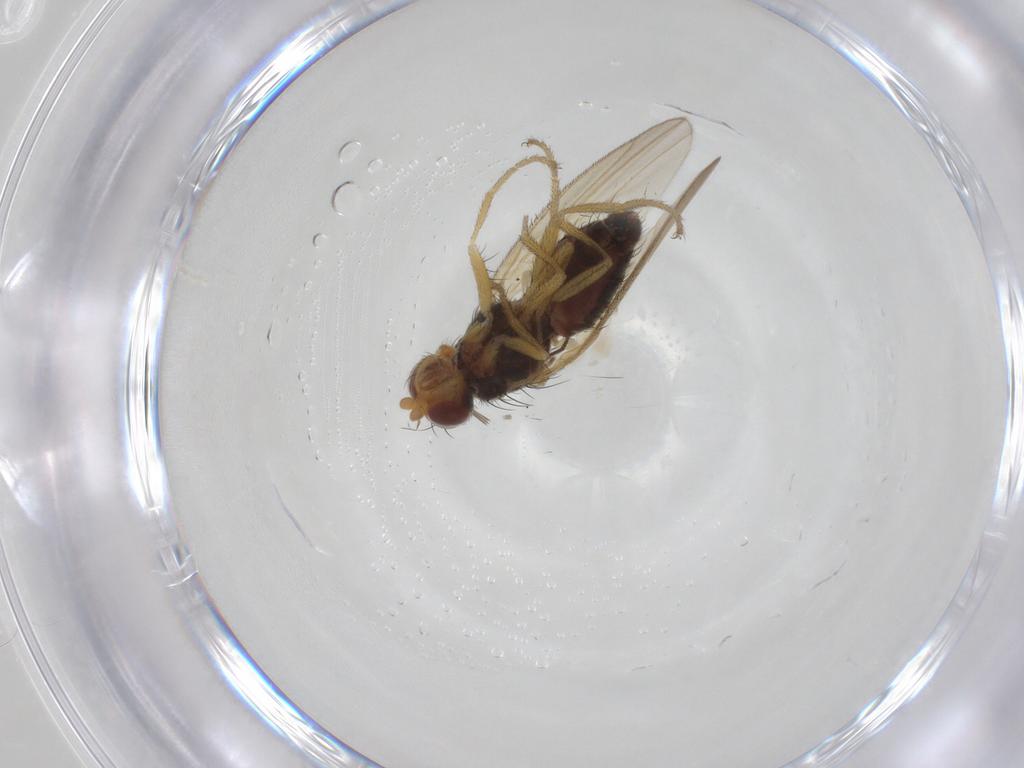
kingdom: Animalia
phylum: Arthropoda
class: Insecta
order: Diptera
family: Heleomyzidae
